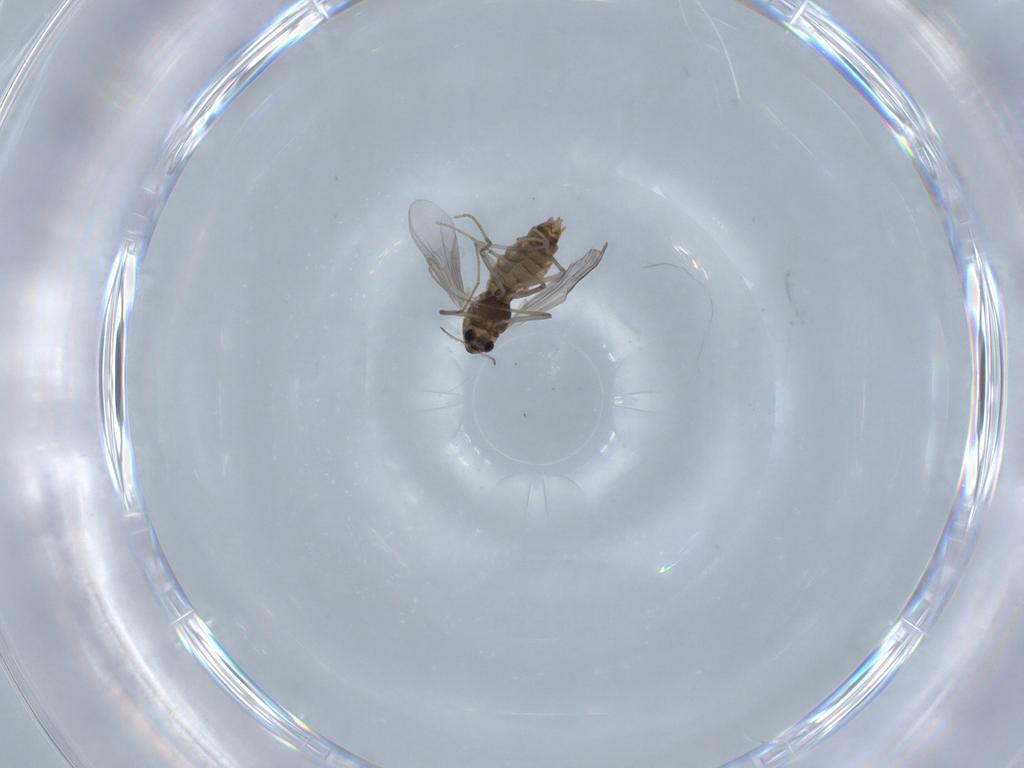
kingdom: Animalia
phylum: Arthropoda
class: Insecta
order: Diptera
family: Chironomidae
